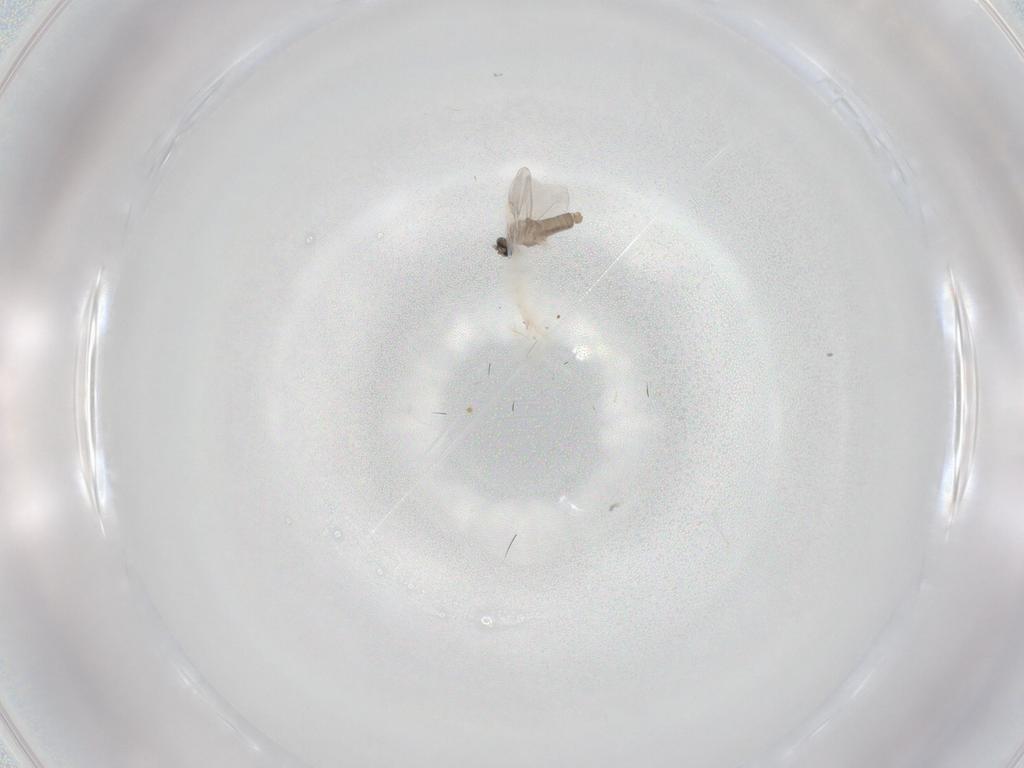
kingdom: Animalia
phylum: Arthropoda
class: Insecta
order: Diptera
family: Cecidomyiidae
